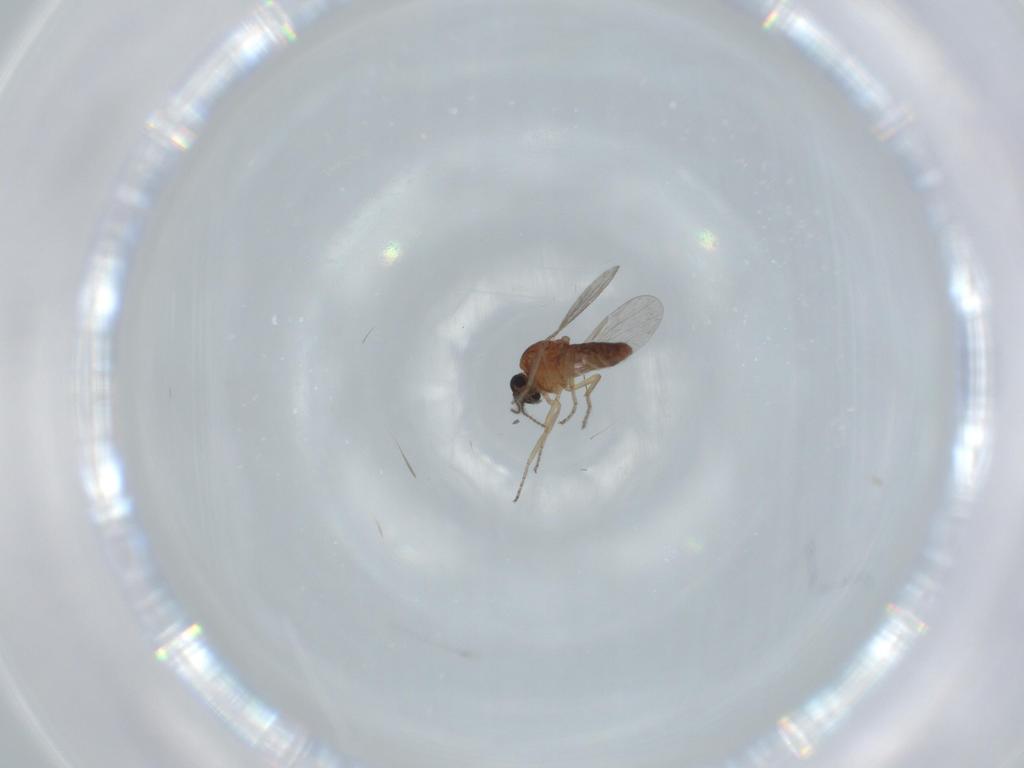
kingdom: Animalia
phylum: Arthropoda
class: Insecta
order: Diptera
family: Ceratopogonidae
